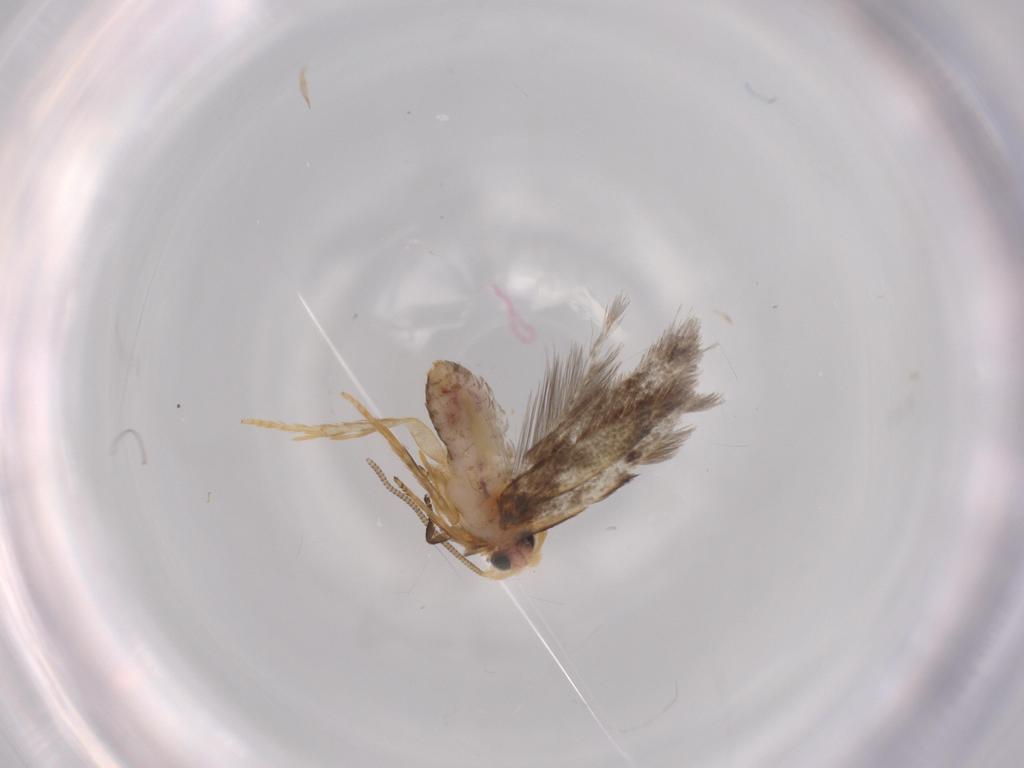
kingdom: Animalia
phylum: Arthropoda
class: Insecta
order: Lepidoptera
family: Nepticulidae
